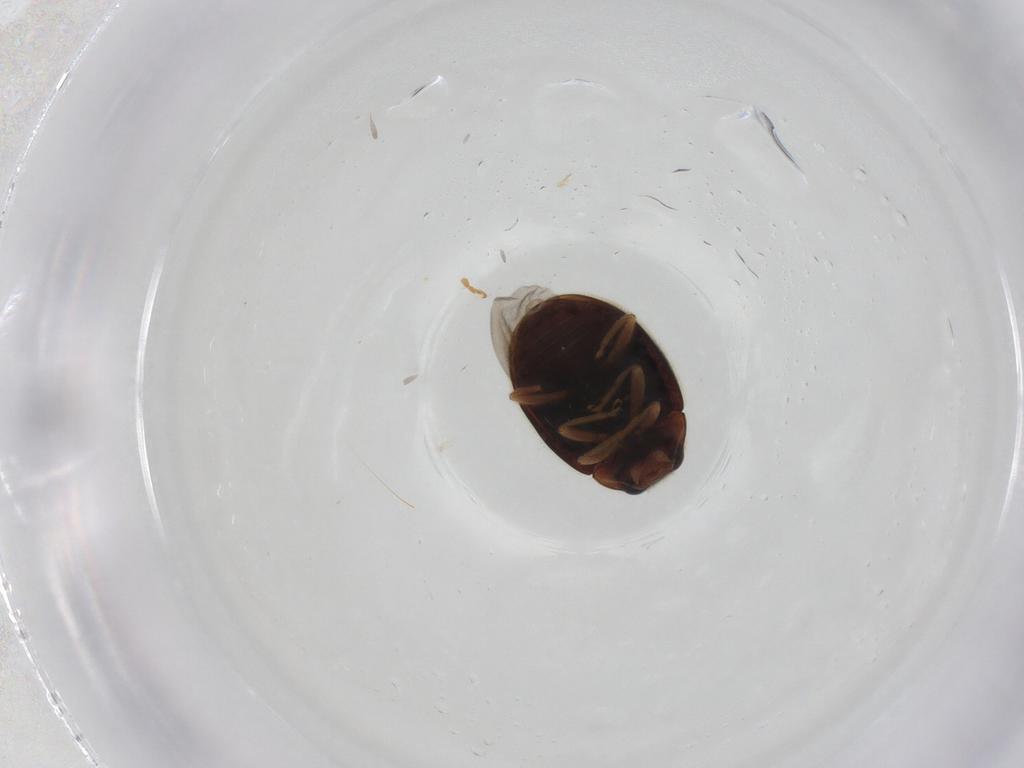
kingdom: Animalia
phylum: Arthropoda
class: Insecta
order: Coleoptera
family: Coccinellidae
